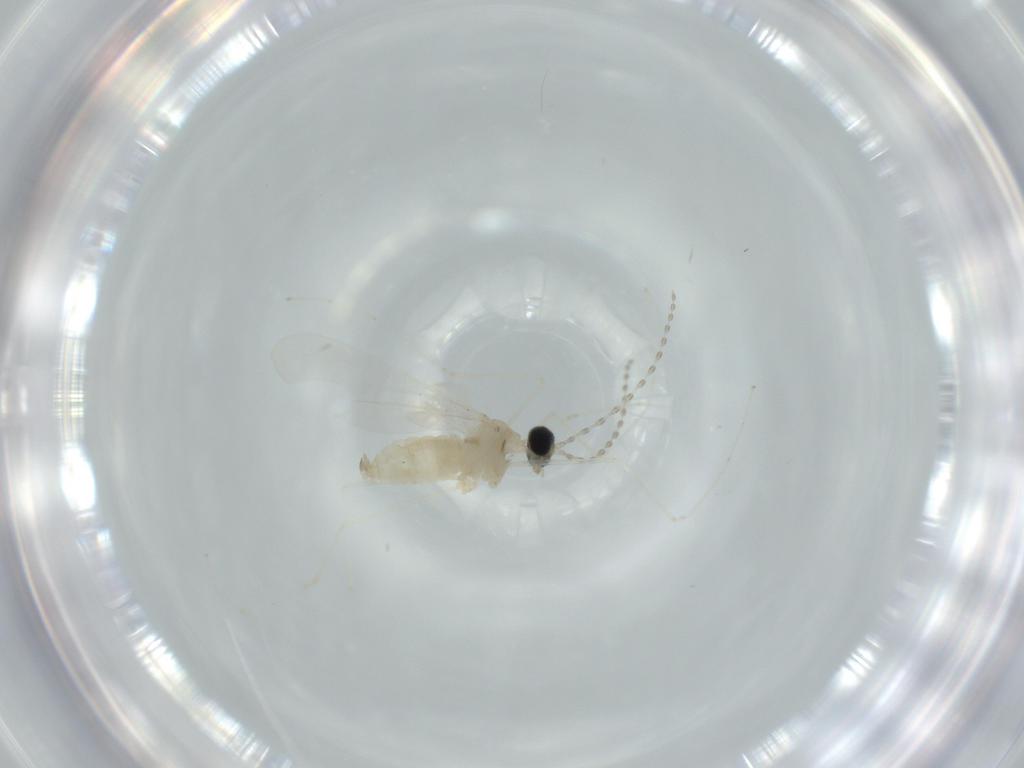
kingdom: Animalia
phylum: Arthropoda
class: Insecta
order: Diptera
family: Cecidomyiidae
